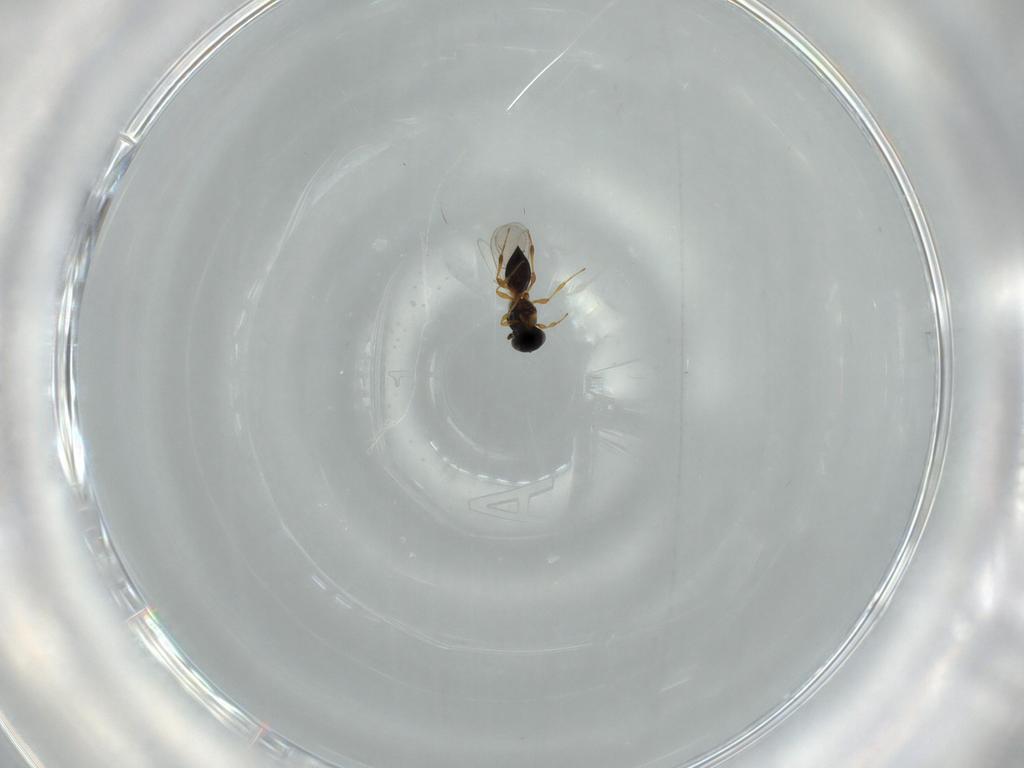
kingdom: Animalia
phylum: Arthropoda
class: Insecta
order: Hymenoptera
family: Platygastridae
